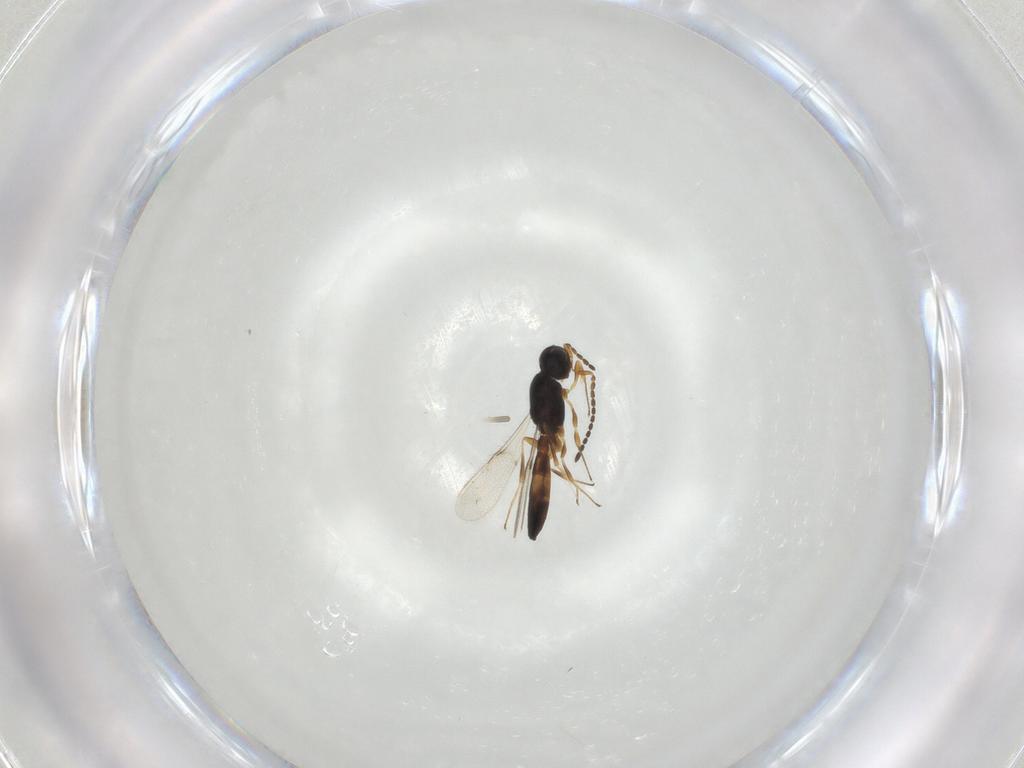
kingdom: Animalia
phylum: Arthropoda
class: Insecta
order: Hymenoptera
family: Scelionidae
